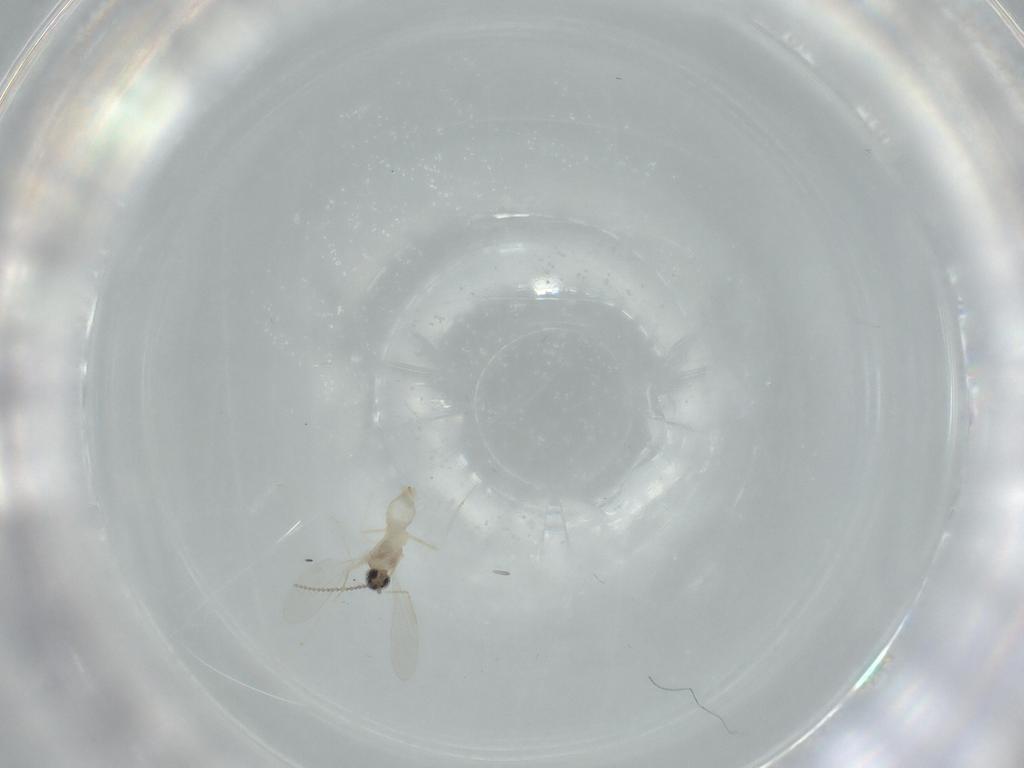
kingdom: Animalia
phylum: Arthropoda
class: Insecta
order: Diptera
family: Cecidomyiidae
